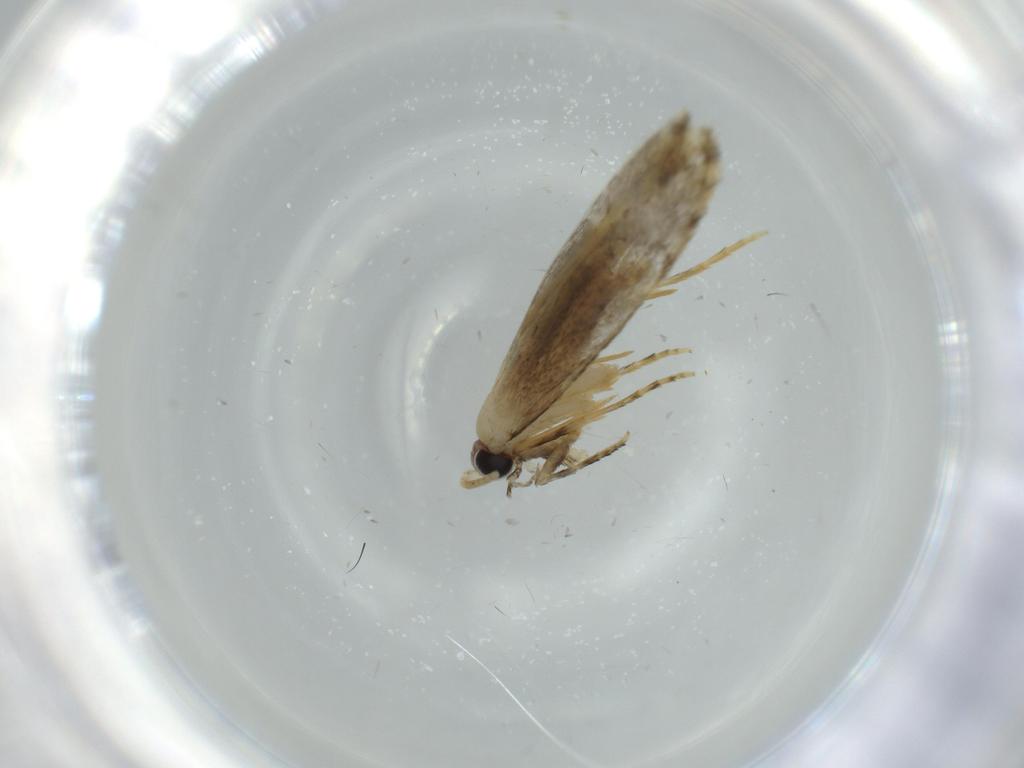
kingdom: Animalia
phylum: Arthropoda
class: Insecta
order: Lepidoptera
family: Tineidae
